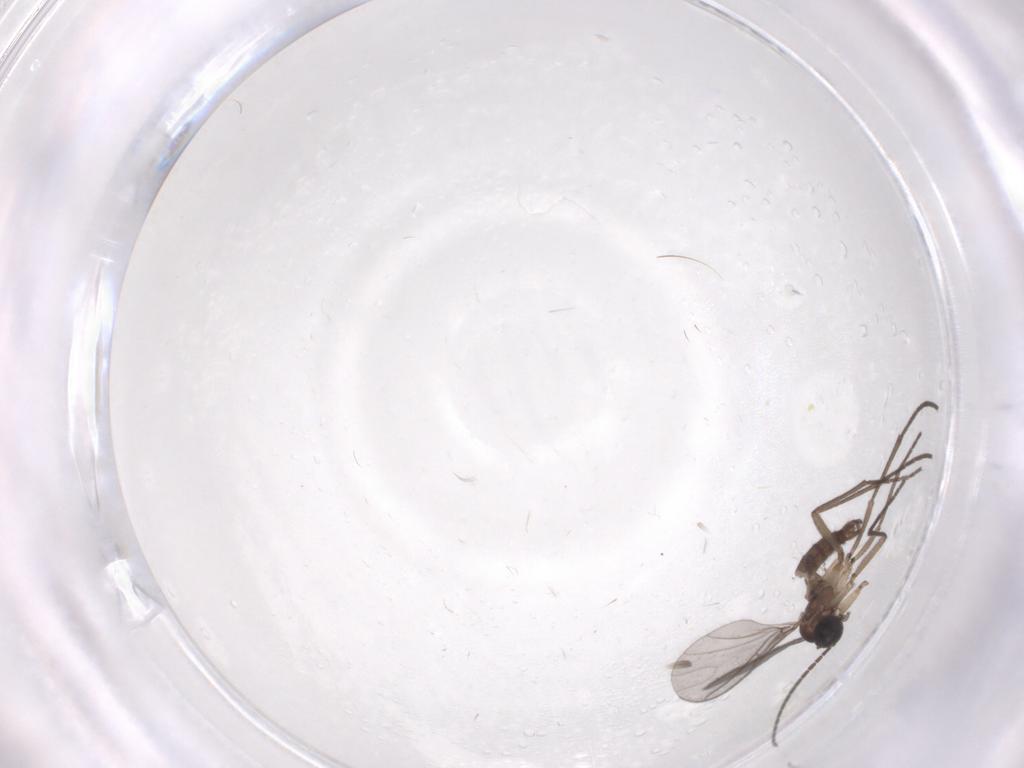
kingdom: Animalia
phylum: Arthropoda
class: Insecta
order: Diptera
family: Sciaridae
